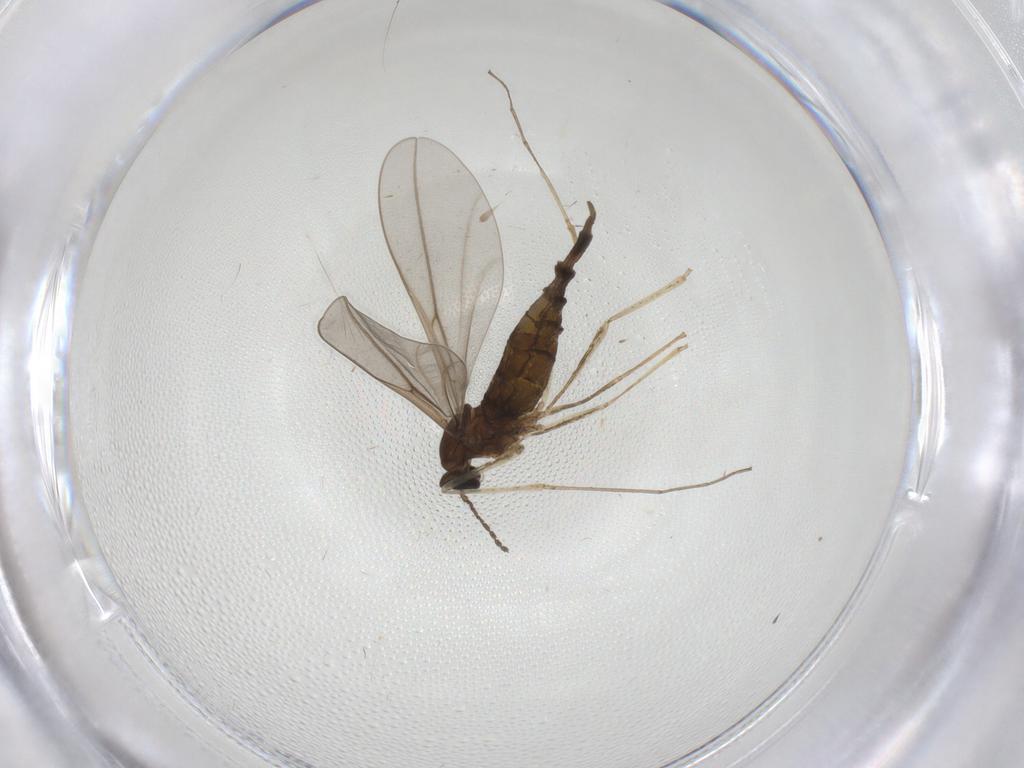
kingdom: Animalia
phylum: Arthropoda
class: Insecta
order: Diptera
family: Cecidomyiidae
